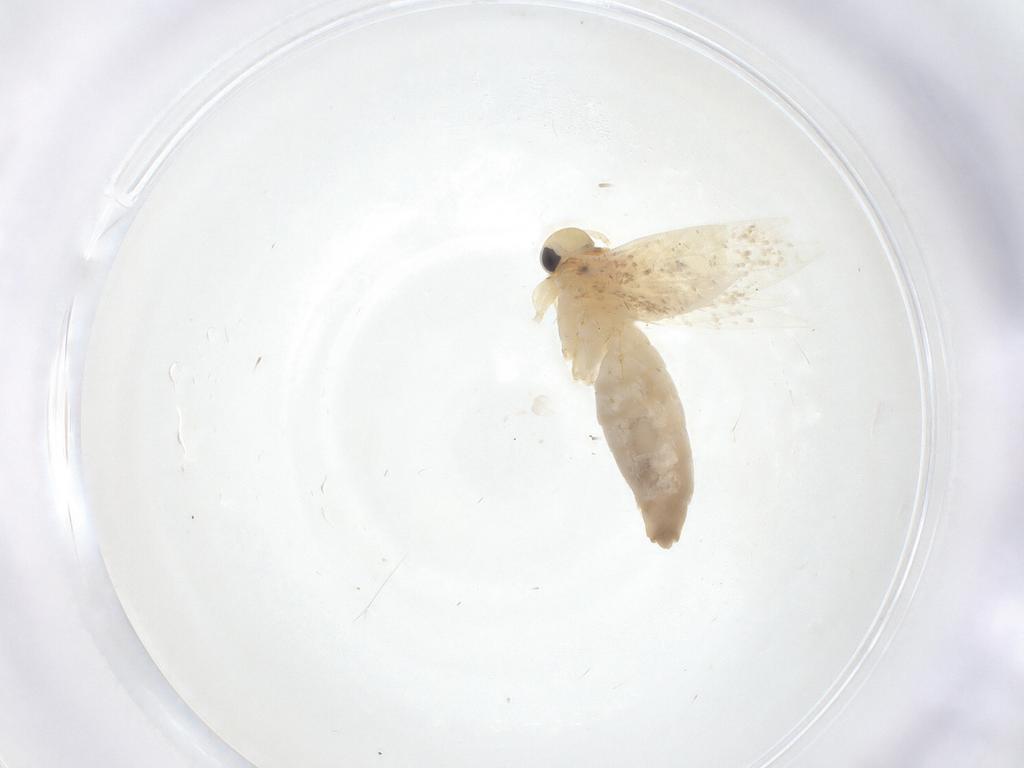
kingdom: Animalia
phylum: Arthropoda
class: Insecta
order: Lepidoptera
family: Erebidae
